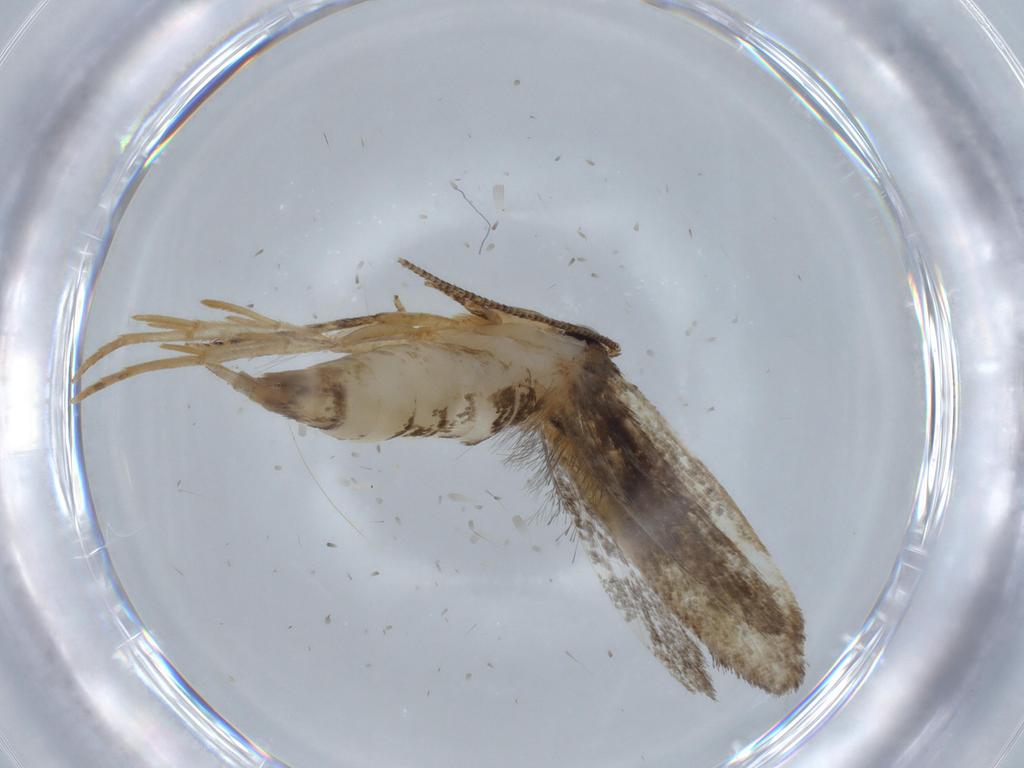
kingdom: Animalia
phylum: Arthropoda
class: Insecta
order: Lepidoptera
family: Tineidae
